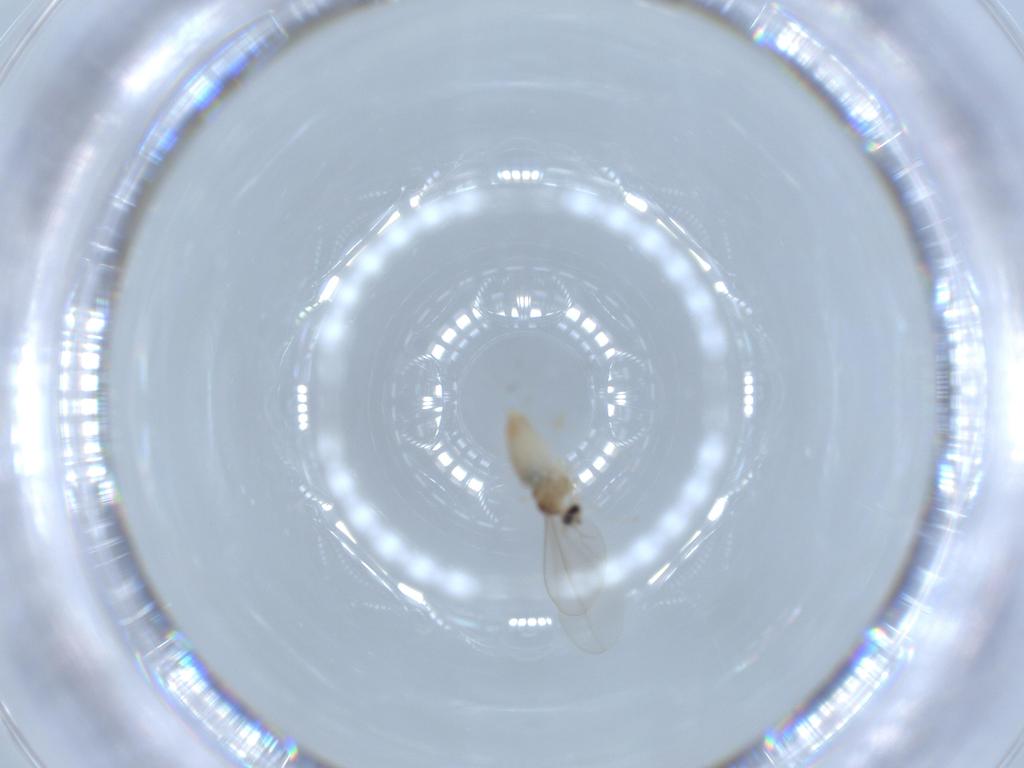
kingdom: Animalia
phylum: Arthropoda
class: Insecta
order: Diptera
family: Cecidomyiidae
